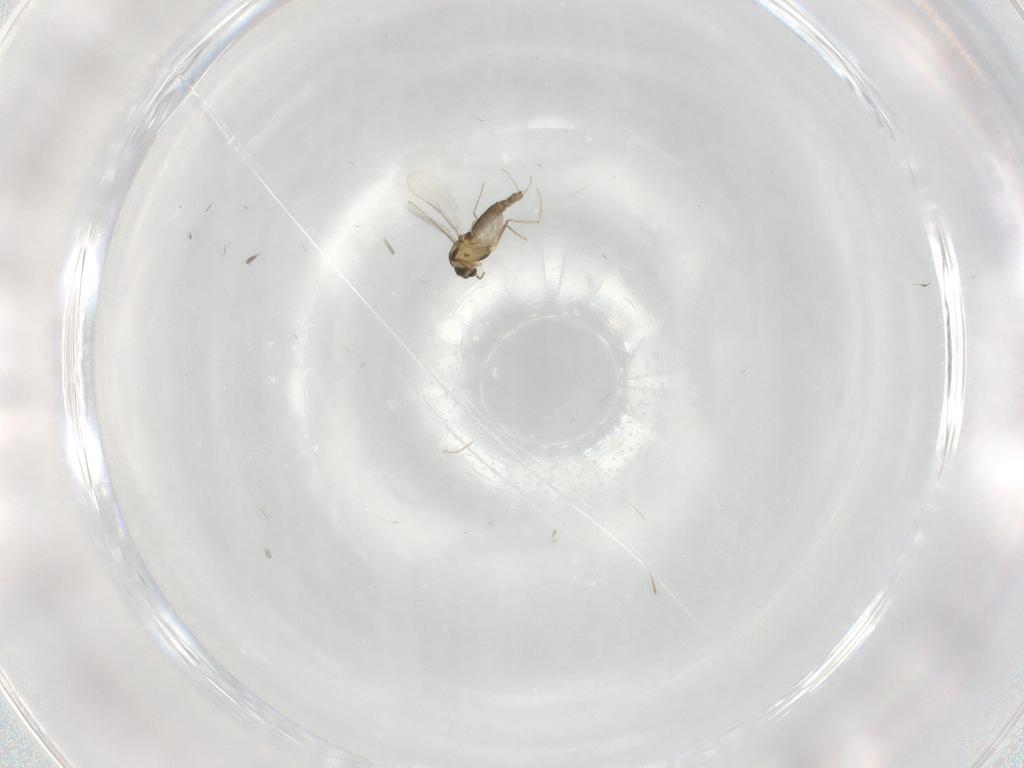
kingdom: Animalia
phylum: Arthropoda
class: Insecta
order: Diptera
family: Chironomidae
